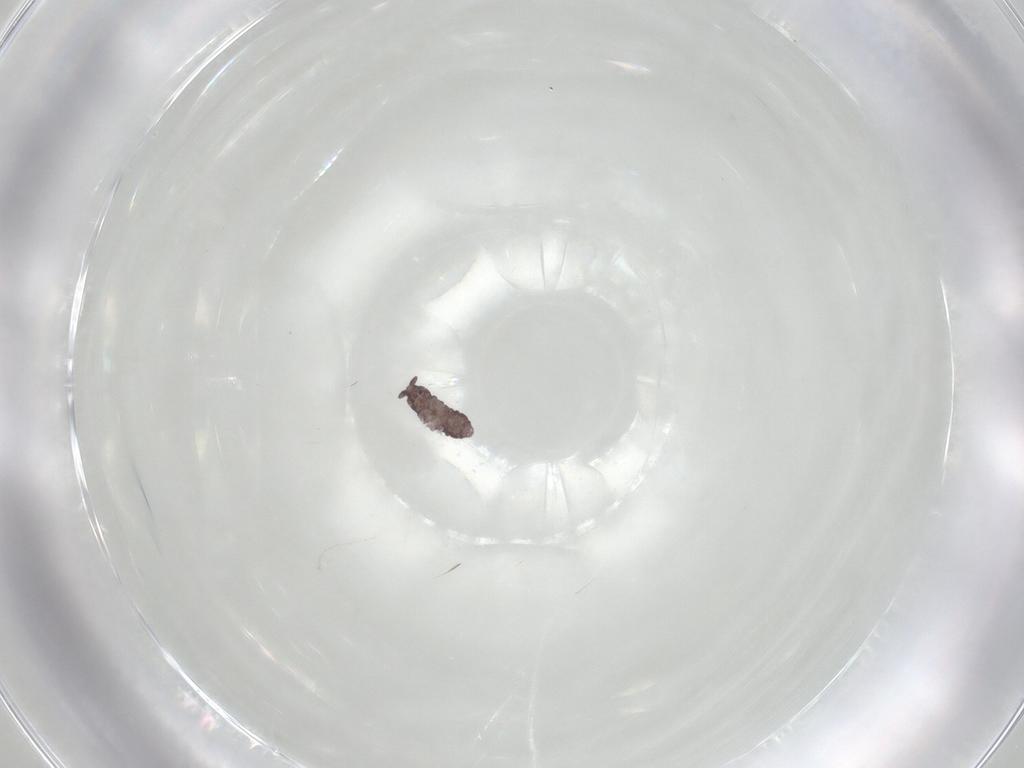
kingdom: Animalia
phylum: Arthropoda
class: Collembola
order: Poduromorpha
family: Hypogastruridae
